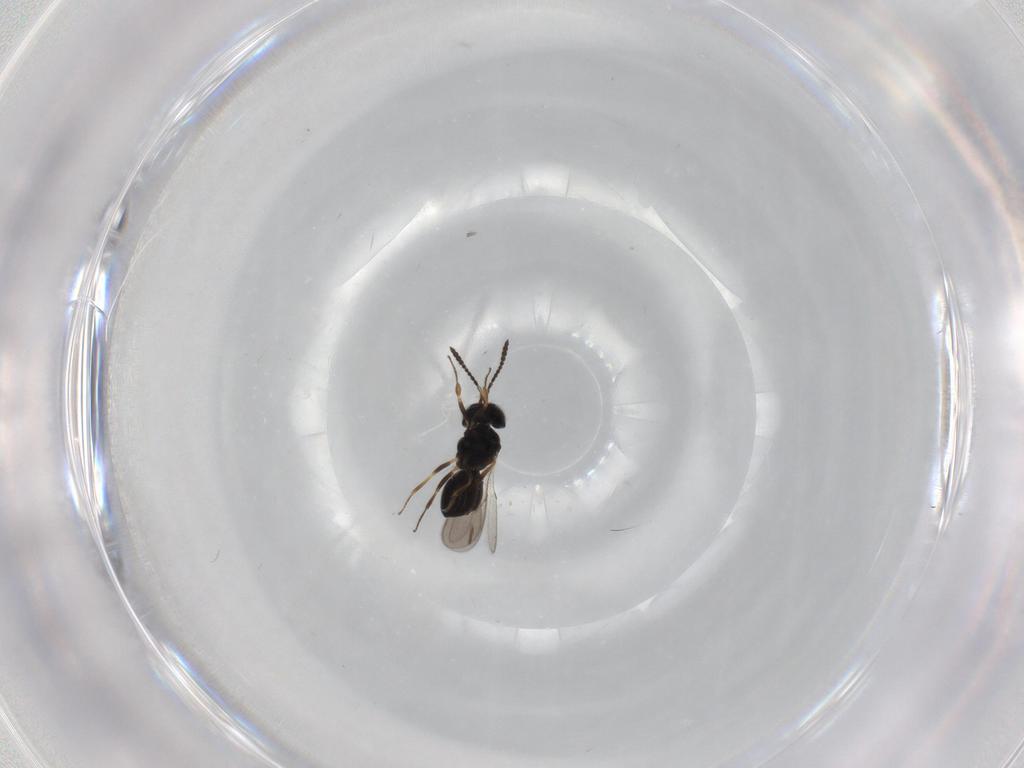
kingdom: Animalia
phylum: Arthropoda
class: Insecta
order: Hymenoptera
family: Scelionidae
